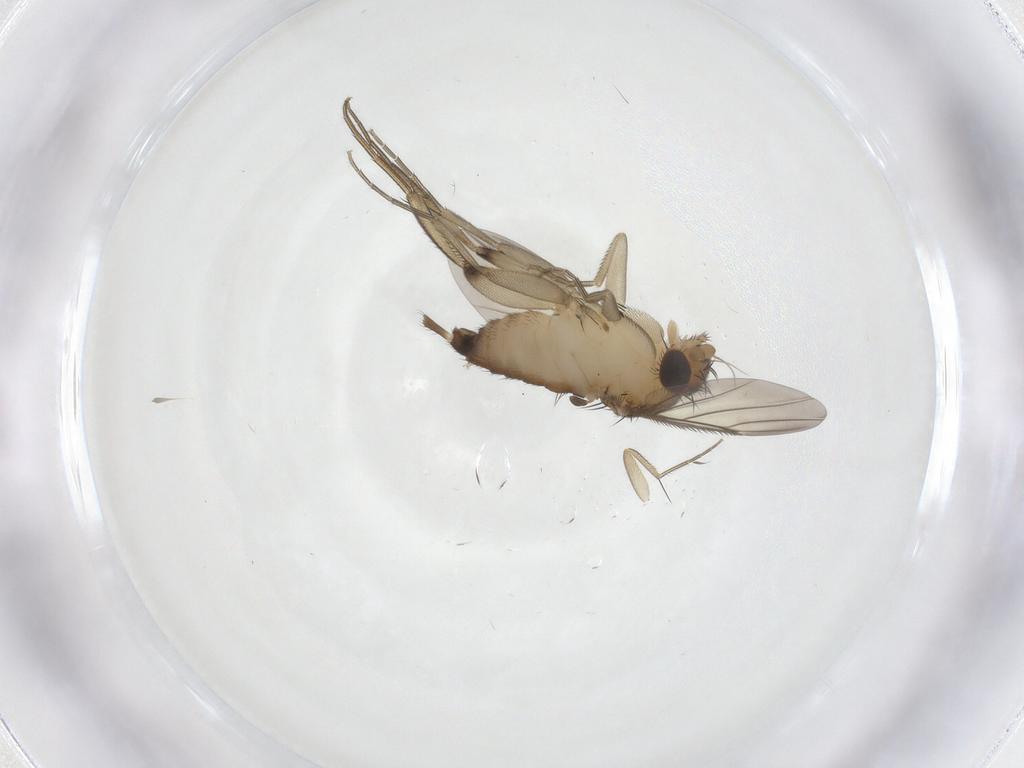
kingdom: Animalia
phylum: Arthropoda
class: Insecta
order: Diptera
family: Phoridae
